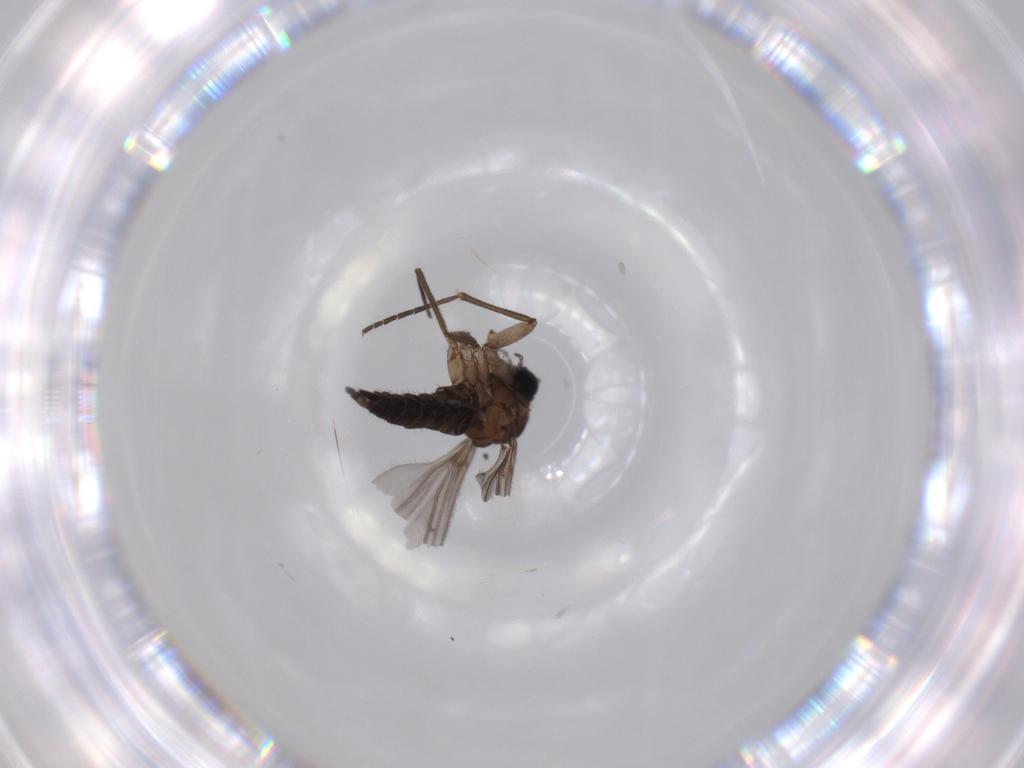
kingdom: Animalia
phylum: Arthropoda
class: Insecta
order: Diptera
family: Sciaridae
